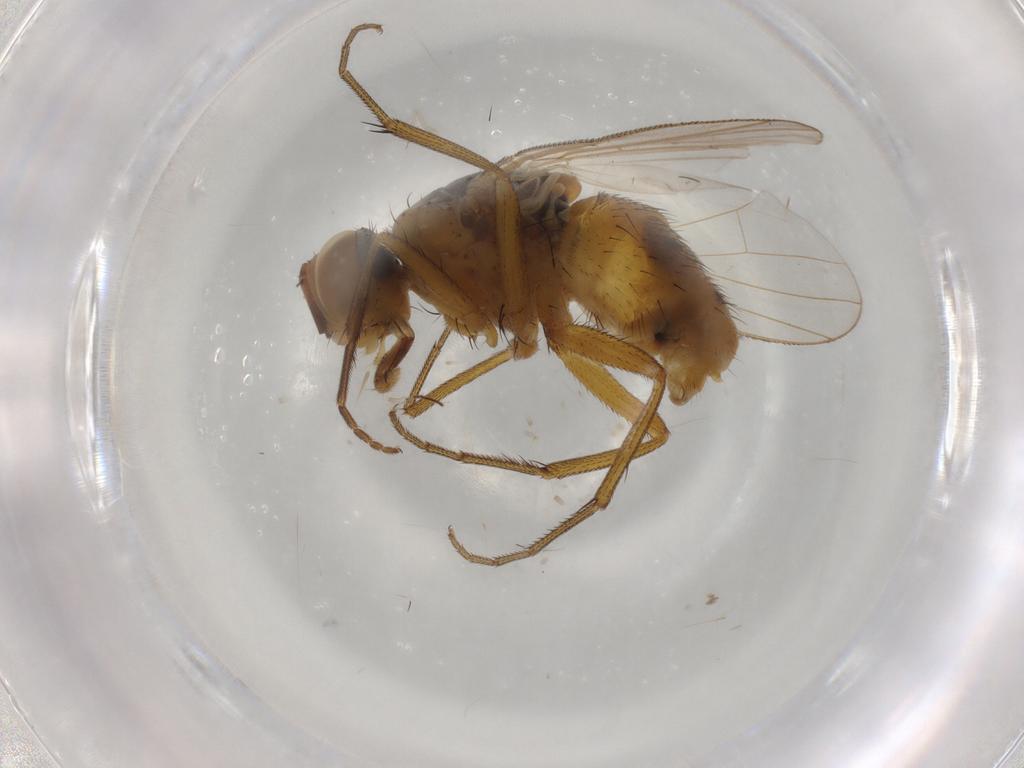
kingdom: Animalia
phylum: Arthropoda
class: Insecta
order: Diptera
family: Muscidae
